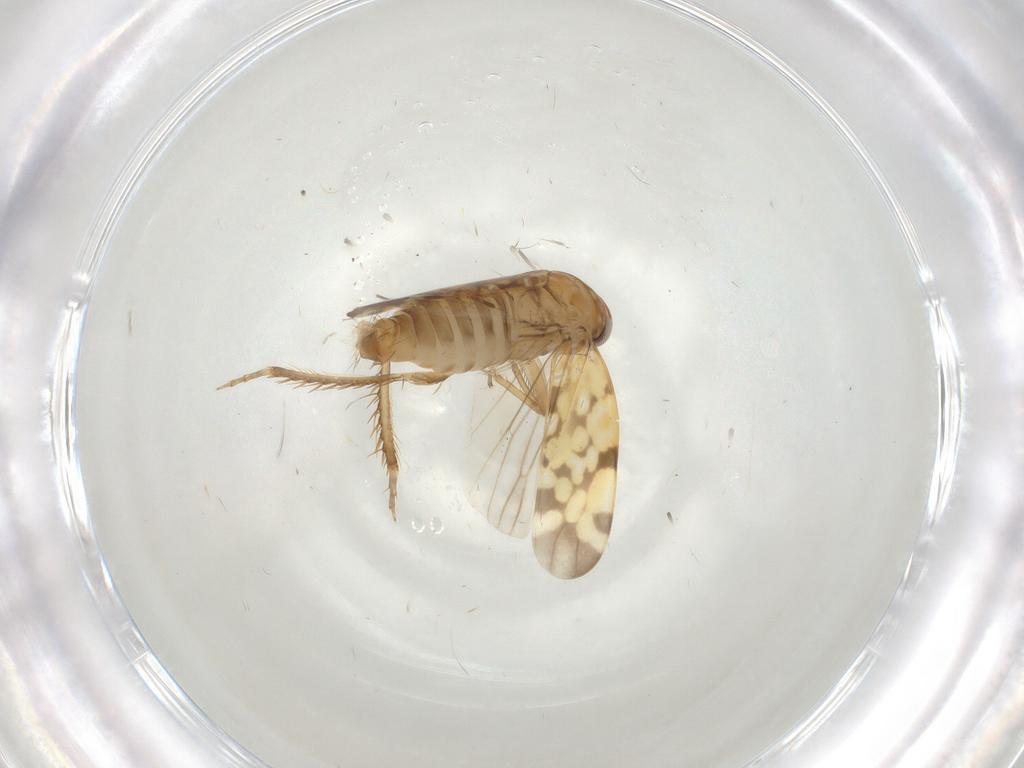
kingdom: Animalia
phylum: Arthropoda
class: Insecta
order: Hemiptera
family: Cicadellidae
